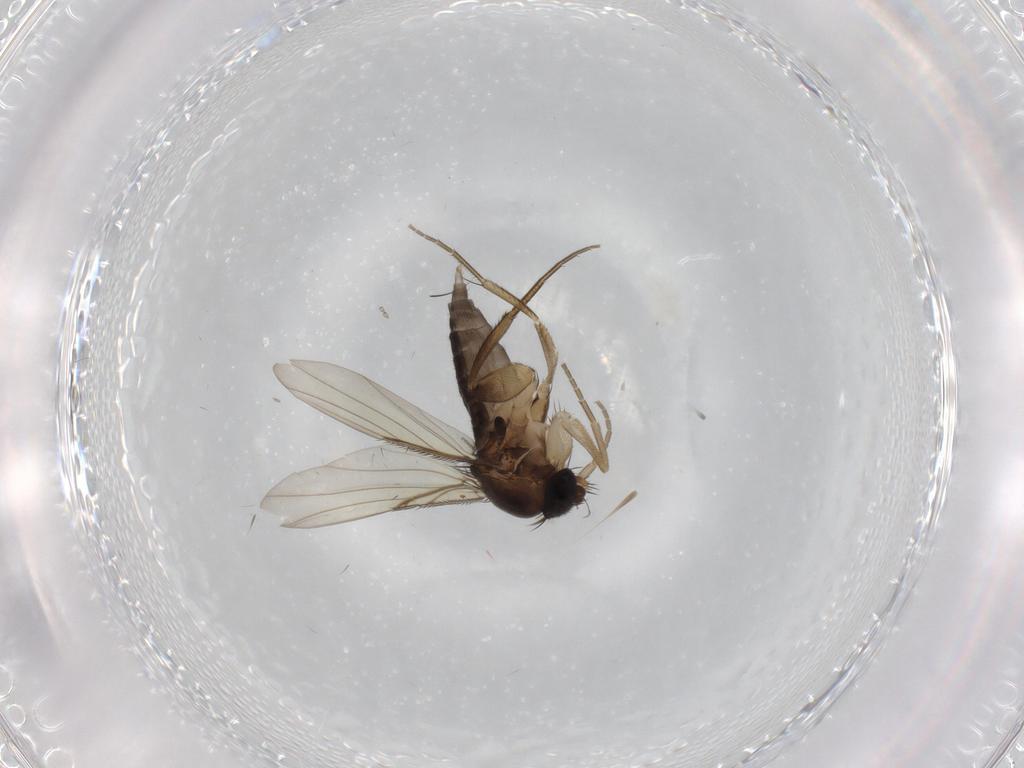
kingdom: Animalia
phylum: Arthropoda
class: Insecta
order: Diptera
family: Phoridae
